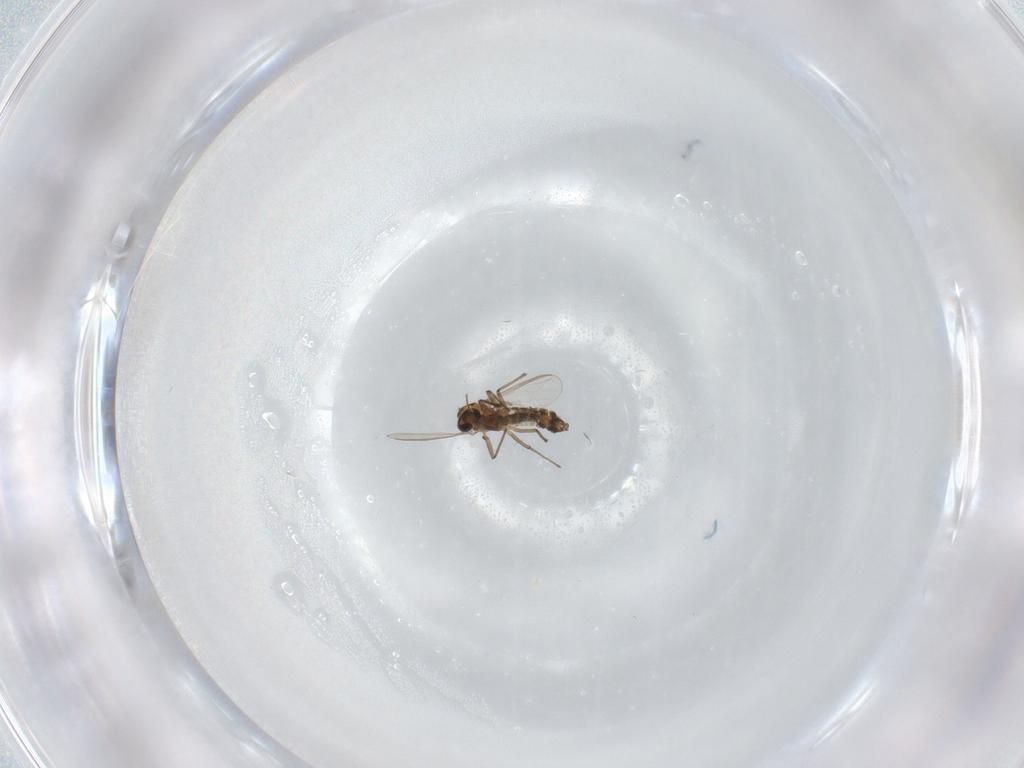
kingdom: Animalia
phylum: Arthropoda
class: Insecta
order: Diptera
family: Chironomidae
